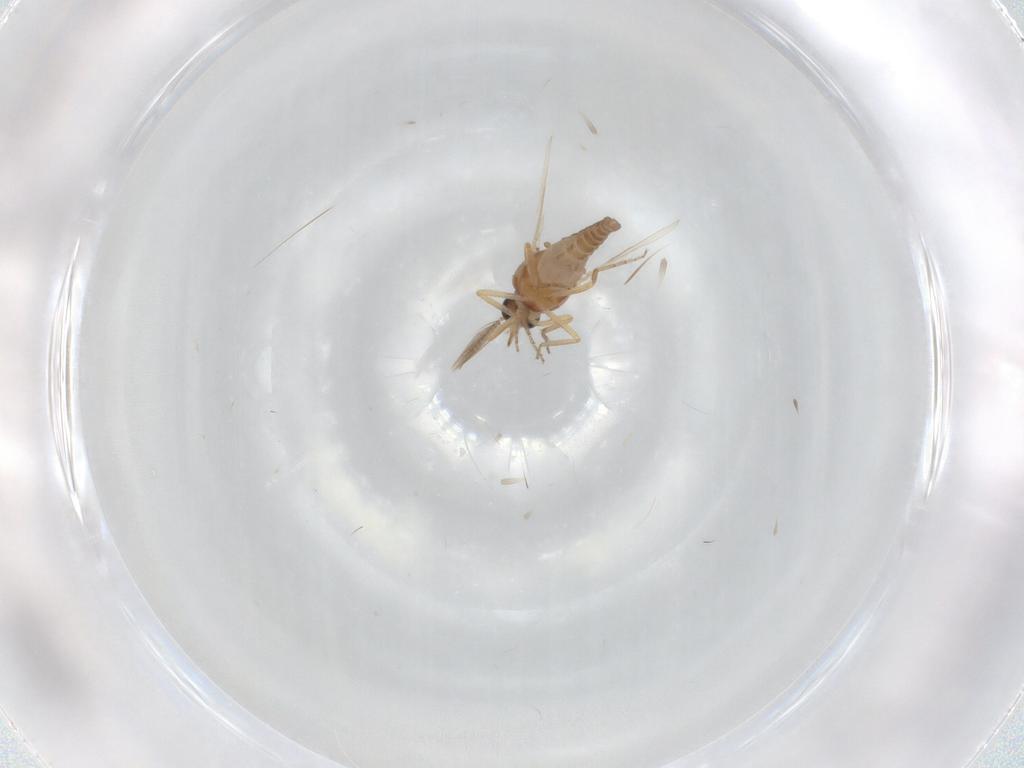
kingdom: Animalia
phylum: Arthropoda
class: Insecta
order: Diptera
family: Ceratopogonidae
